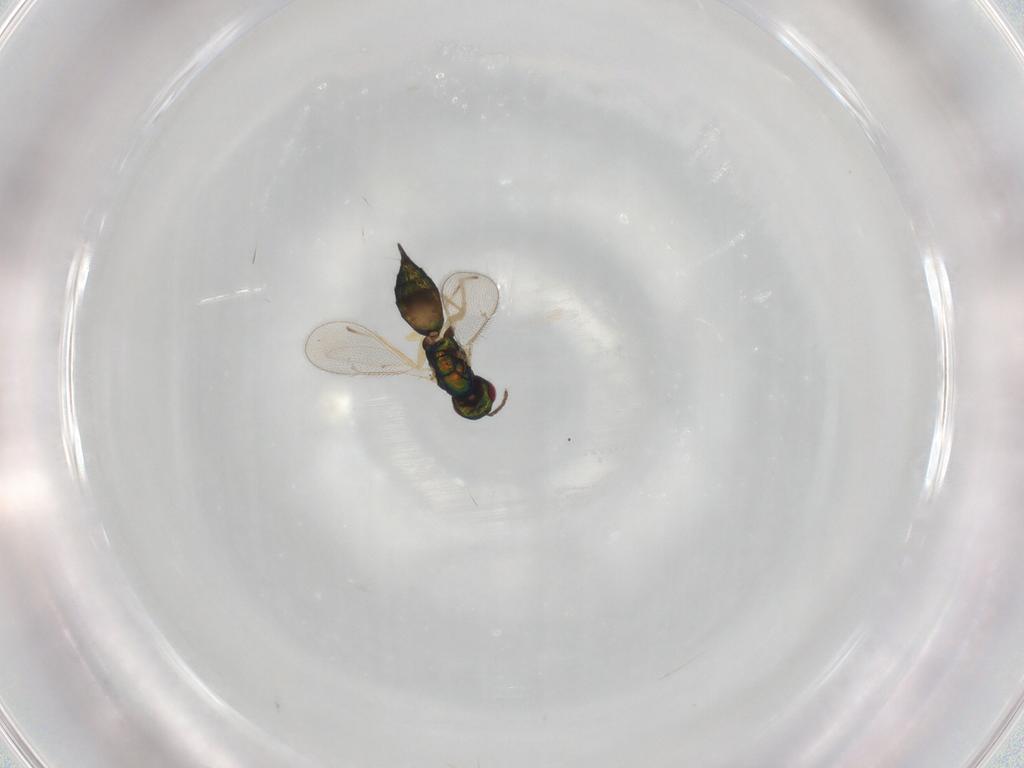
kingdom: Animalia
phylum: Arthropoda
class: Insecta
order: Hymenoptera
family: Eulophidae
